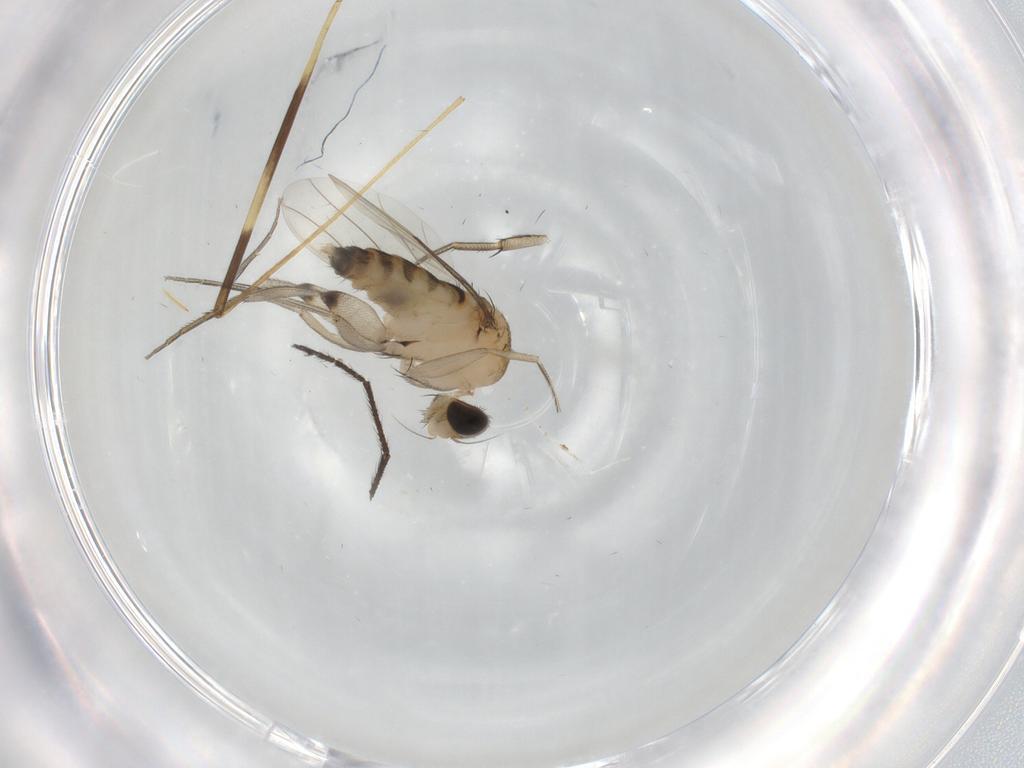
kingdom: Animalia
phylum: Arthropoda
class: Insecta
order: Diptera
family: Phoridae
